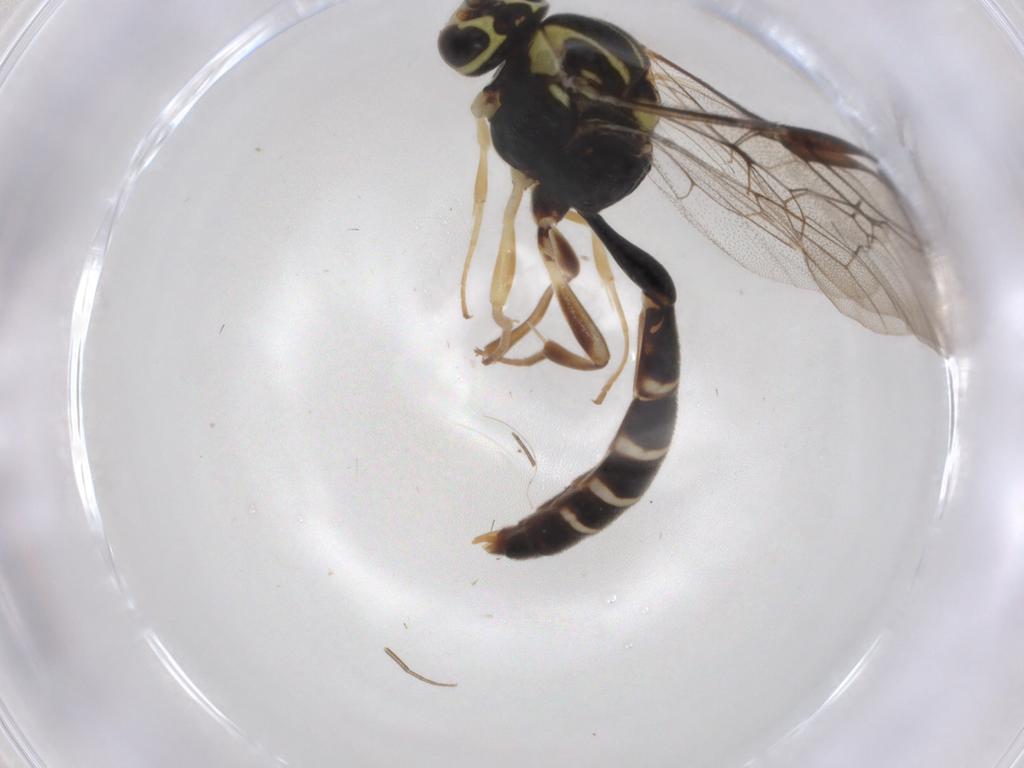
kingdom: Animalia
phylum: Arthropoda
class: Insecta
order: Hymenoptera
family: Ichneumonidae
